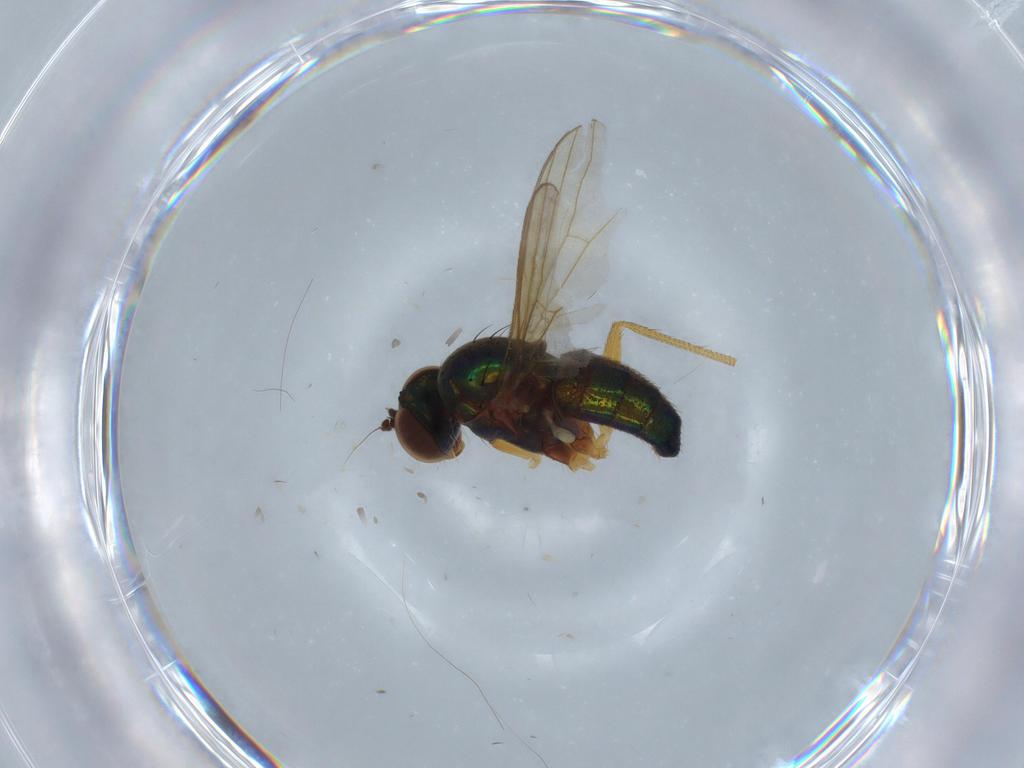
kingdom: Animalia
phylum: Arthropoda
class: Insecta
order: Diptera
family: Dolichopodidae
